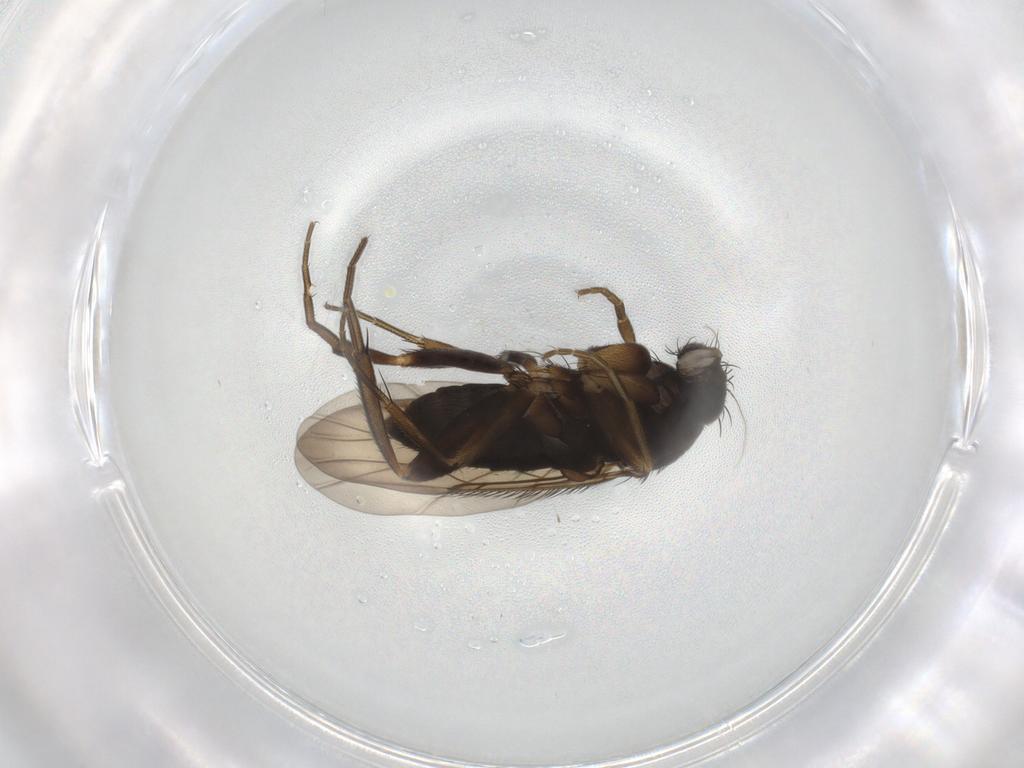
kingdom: Animalia
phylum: Arthropoda
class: Insecta
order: Diptera
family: Phoridae
